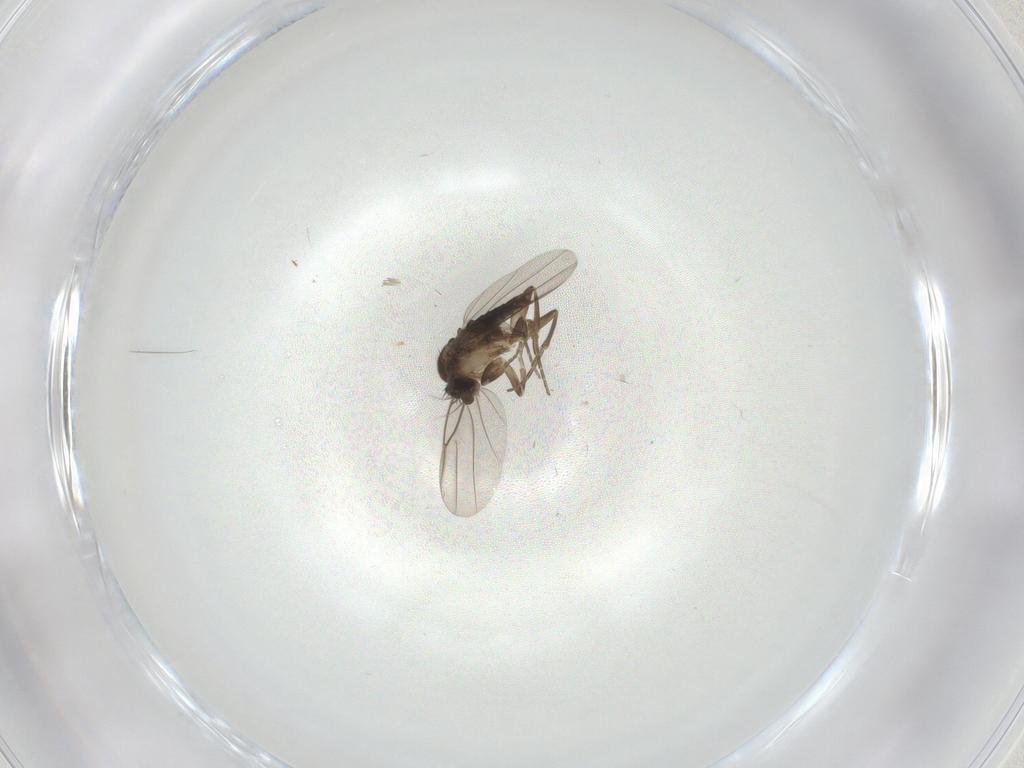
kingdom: Animalia
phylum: Arthropoda
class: Insecta
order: Diptera
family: Phoridae
